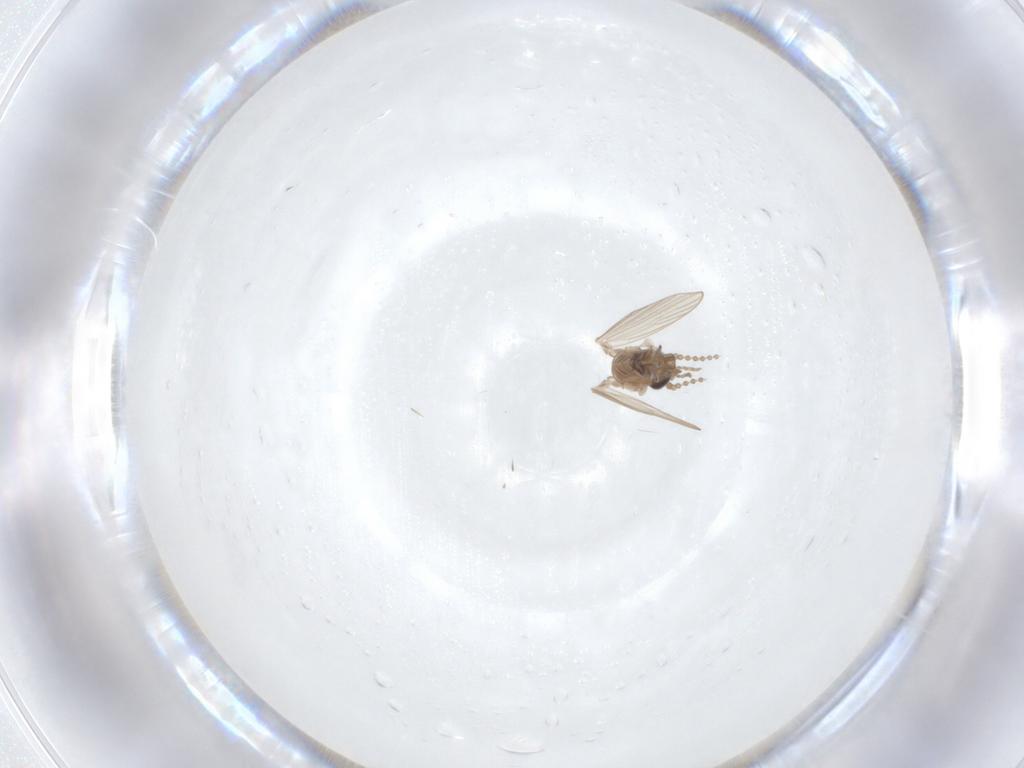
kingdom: Animalia
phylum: Arthropoda
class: Insecta
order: Diptera
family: Psychodidae
